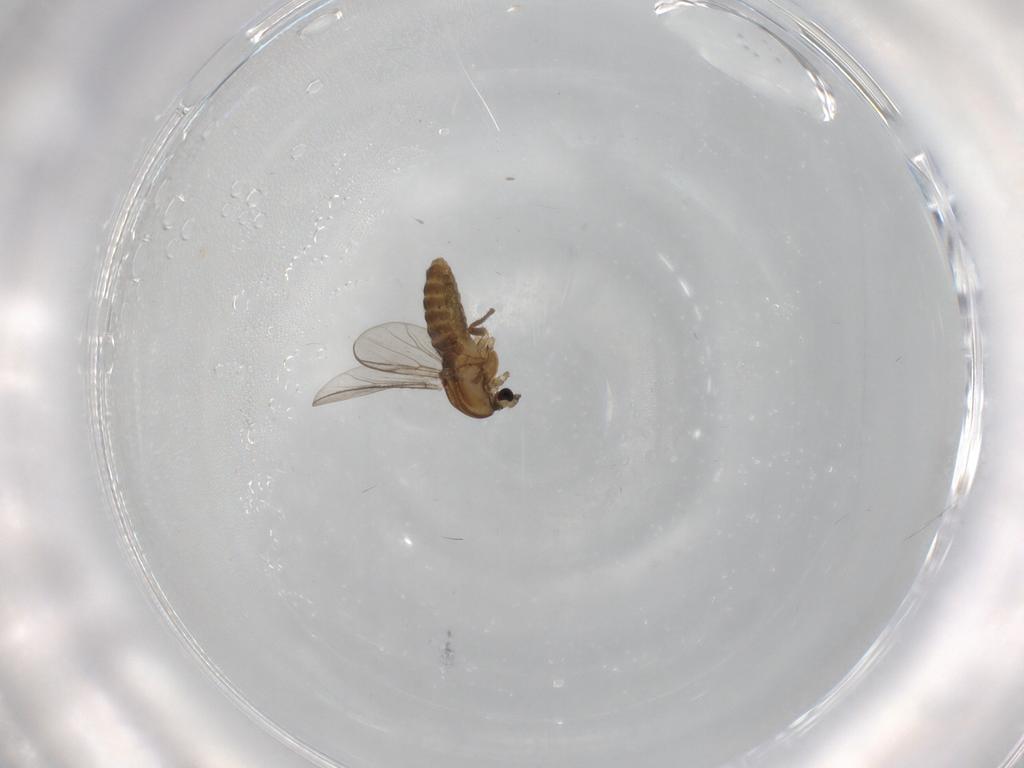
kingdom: Animalia
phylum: Arthropoda
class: Insecta
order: Diptera
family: Chironomidae
